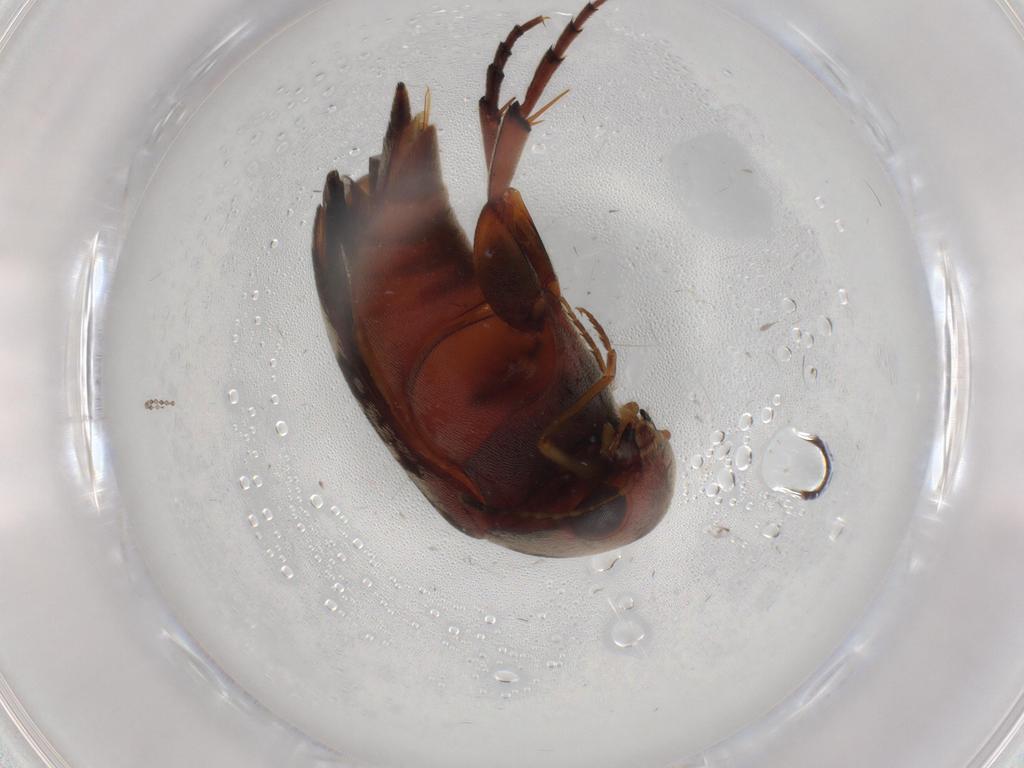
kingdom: Animalia
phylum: Arthropoda
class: Insecta
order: Coleoptera
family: Mordellidae
